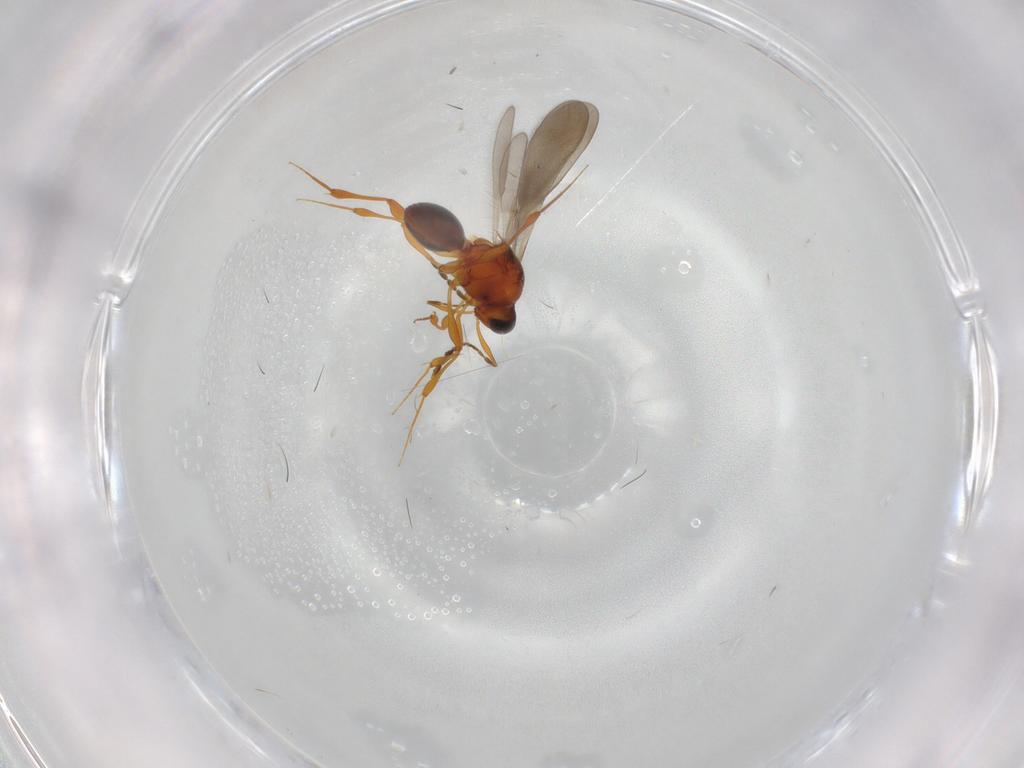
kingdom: Animalia
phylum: Arthropoda
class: Insecta
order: Hymenoptera
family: Platygastridae
